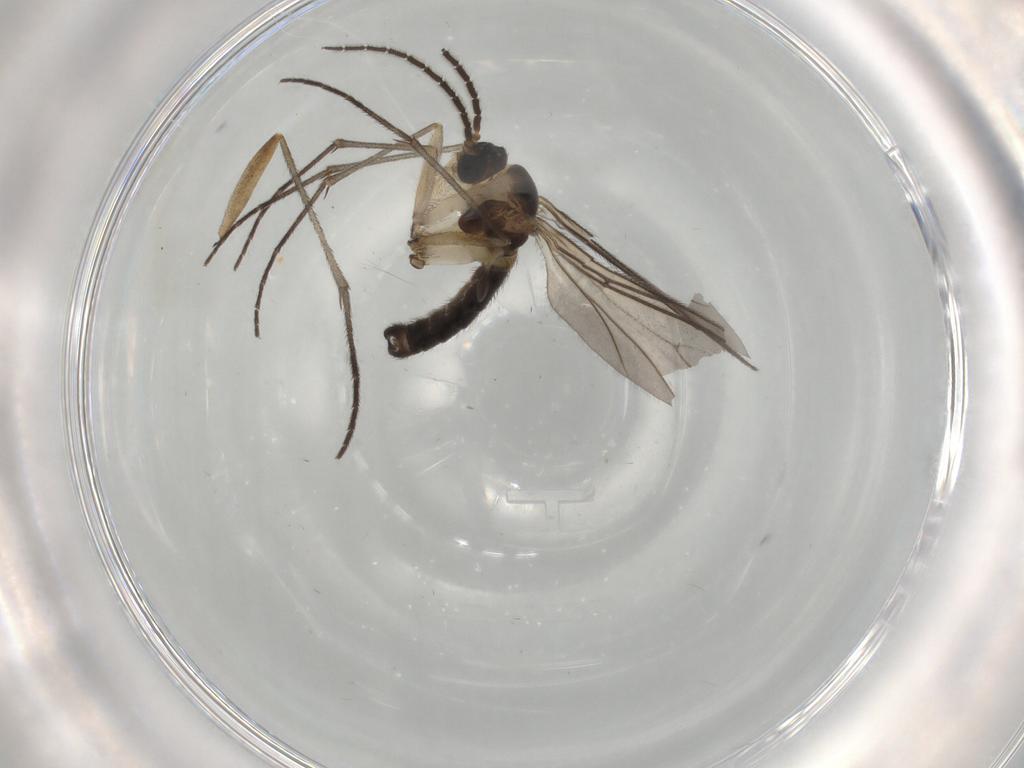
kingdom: Animalia
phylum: Arthropoda
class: Insecta
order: Diptera
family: Sciaridae
